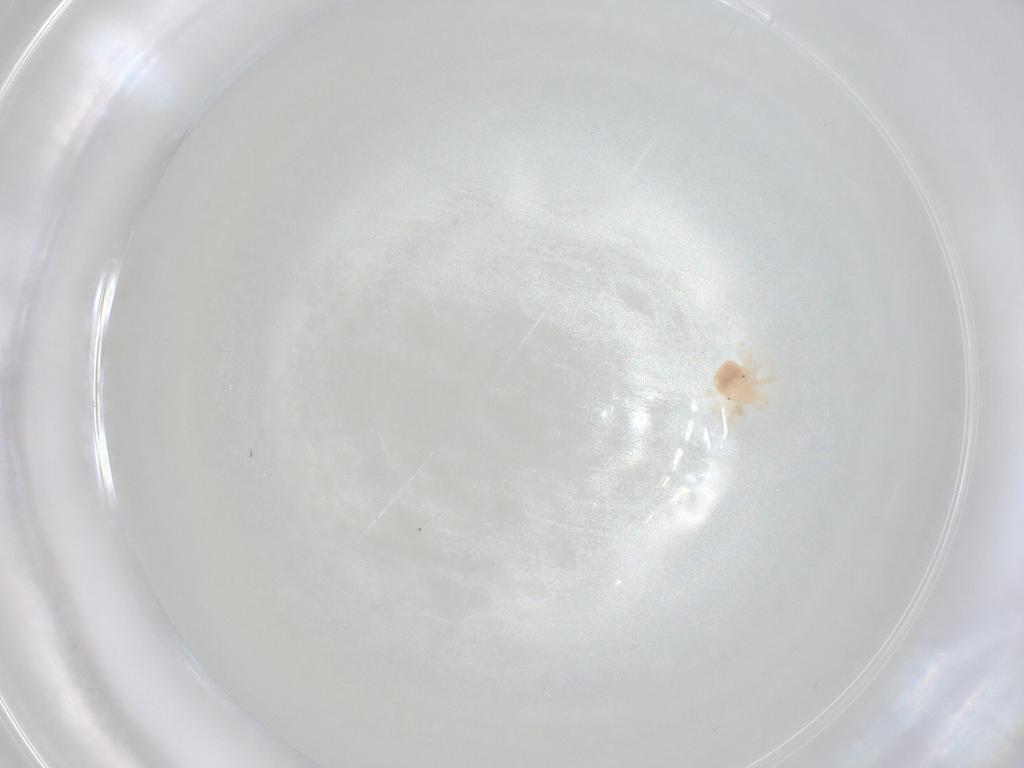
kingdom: Animalia
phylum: Arthropoda
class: Arachnida
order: Trombidiformes
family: Anystidae
